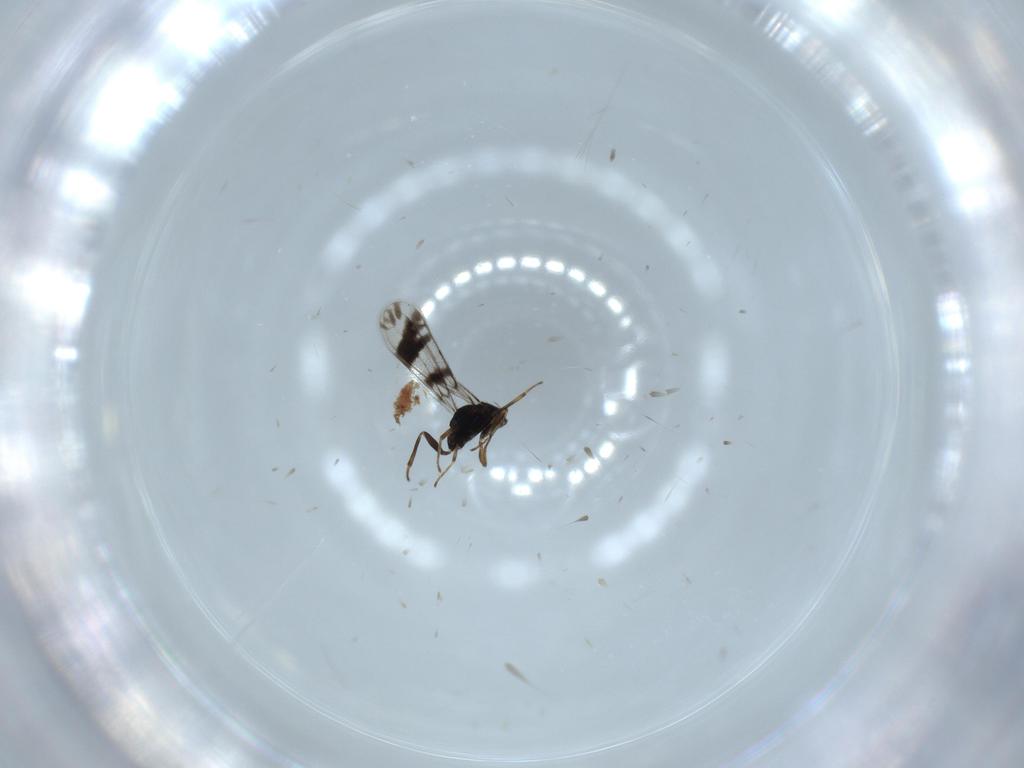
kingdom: Animalia
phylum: Arthropoda
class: Insecta
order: Hymenoptera
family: Eulophidae
